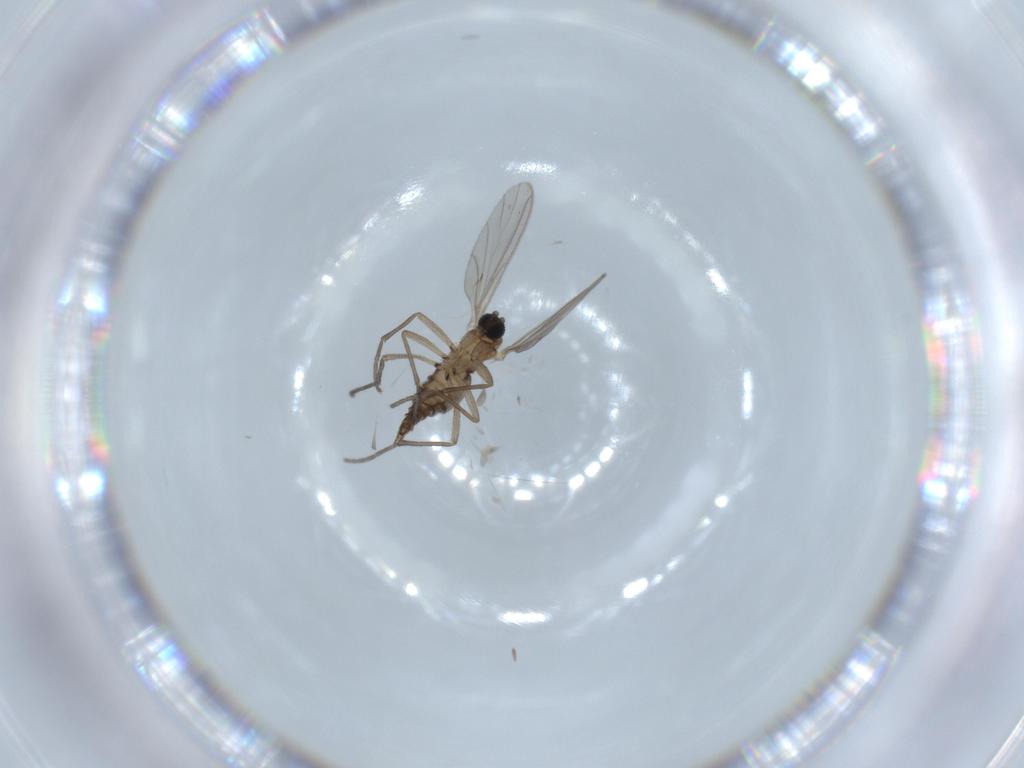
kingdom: Animalia
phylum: Arthropoda
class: Insecta
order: Diptera
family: Sciaridae
